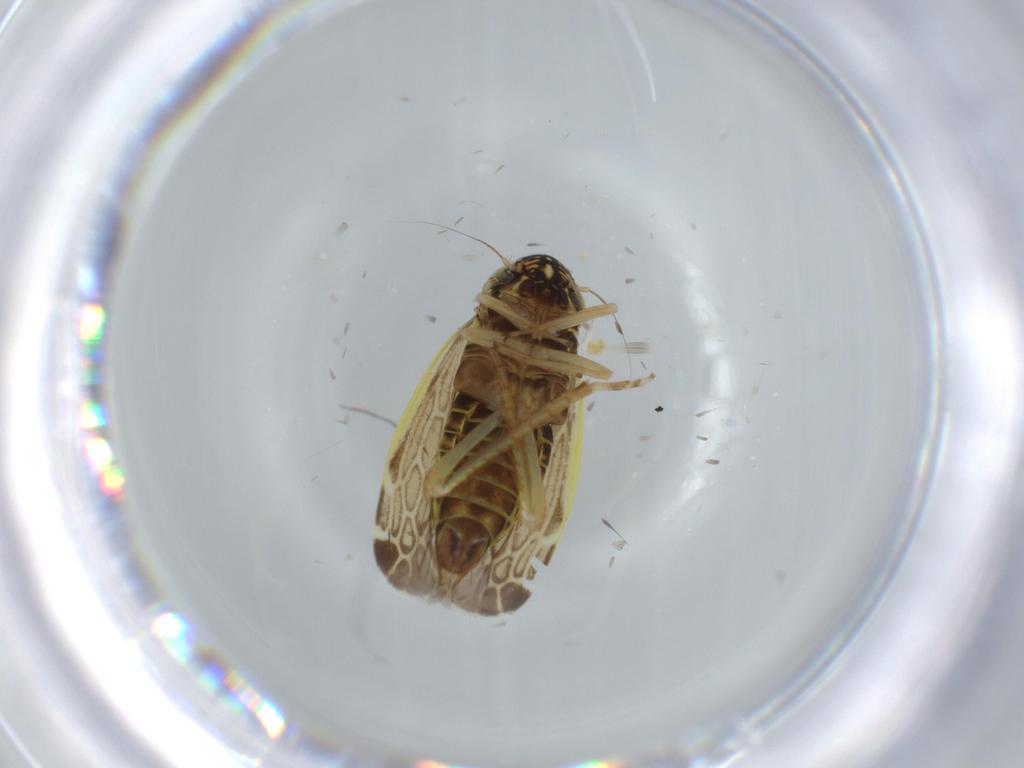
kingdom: Animalia
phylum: Arthropoda
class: Insecta
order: Hemiptera
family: Cicadellidae
